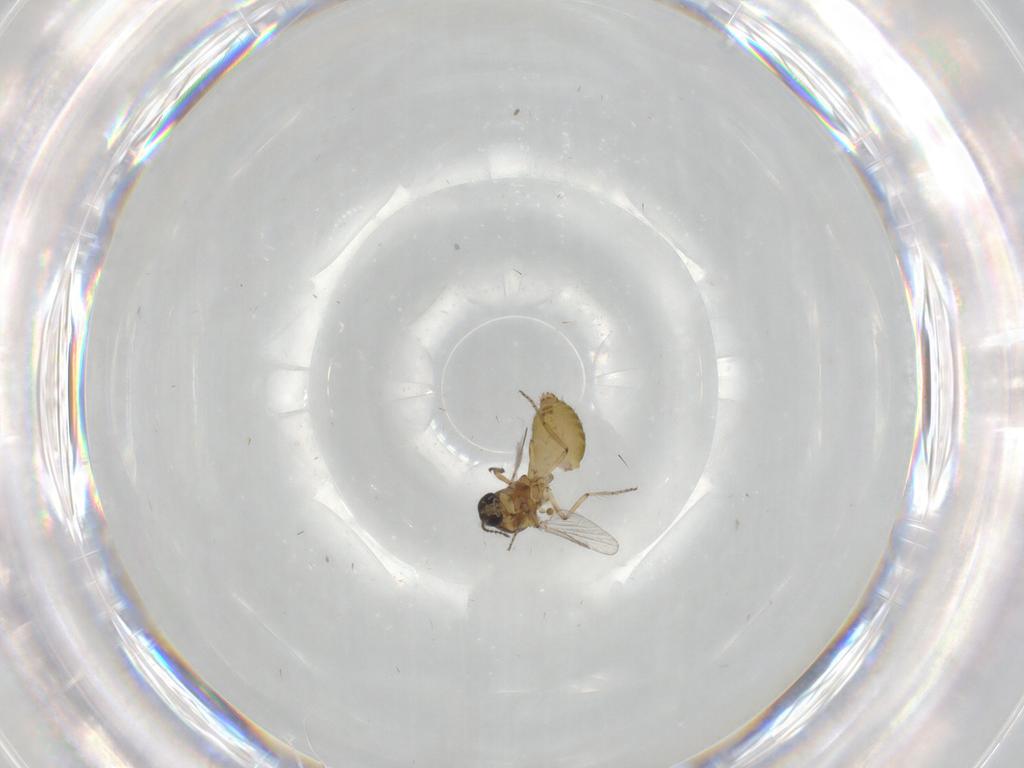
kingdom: Animalia
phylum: Arthropoda
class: Insecta
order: Diptera
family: Ceratopogonidae
